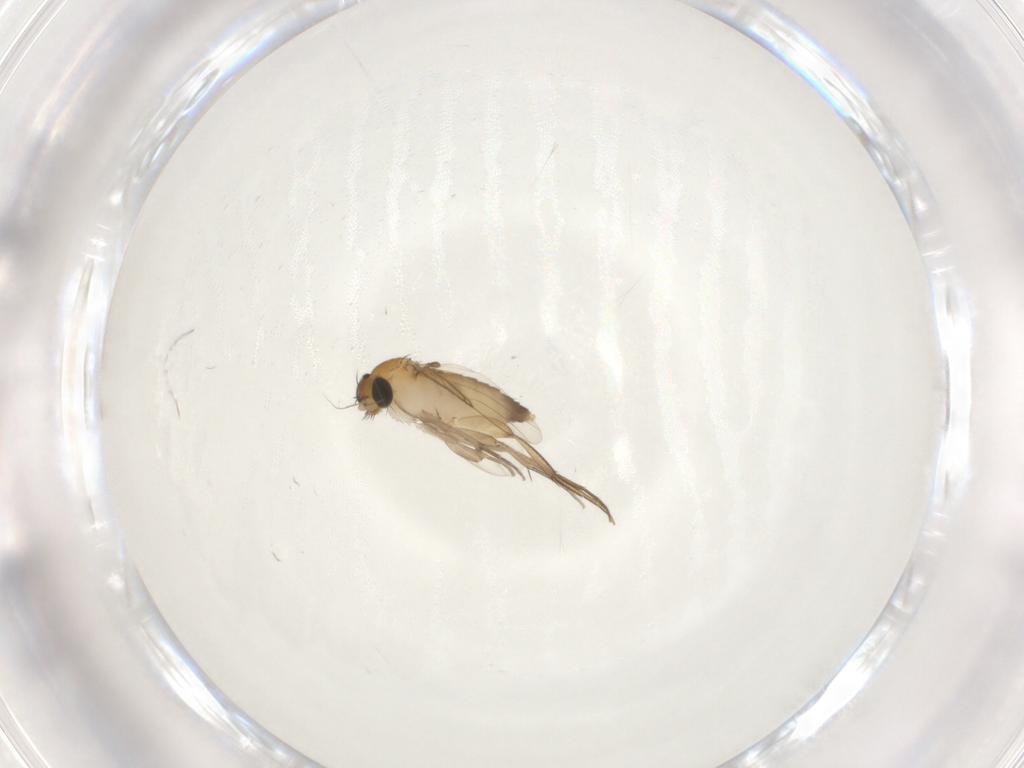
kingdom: Animalia
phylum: Arthropoda
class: Insecta
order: Diptera
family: Phoridae
